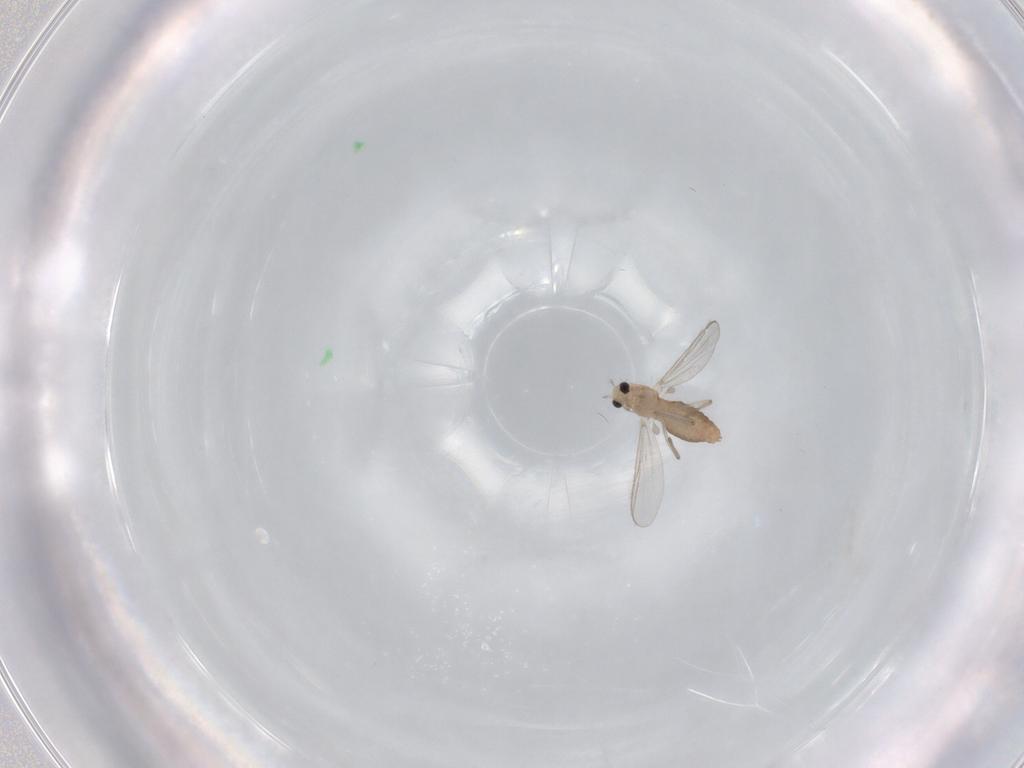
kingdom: Animalia
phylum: Arthropoda
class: Insecta
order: Diptera
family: Chironomidae
